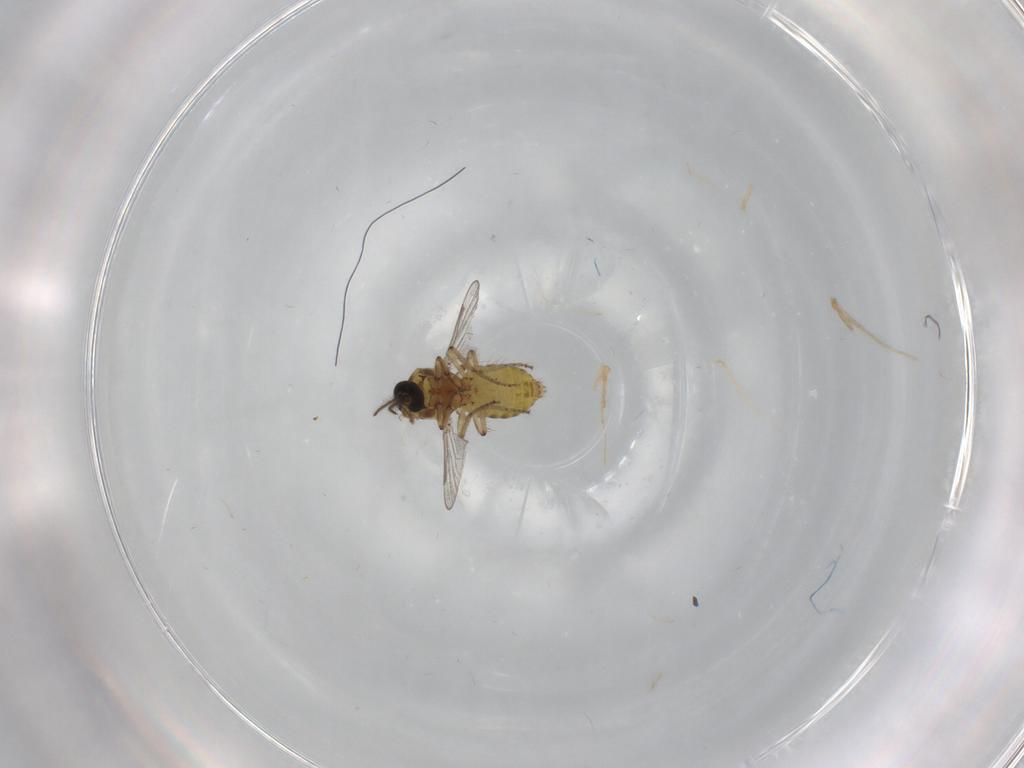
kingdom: Animalia
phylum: Arthropoda
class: Insecta
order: Diptera
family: Ceratopogonidae
